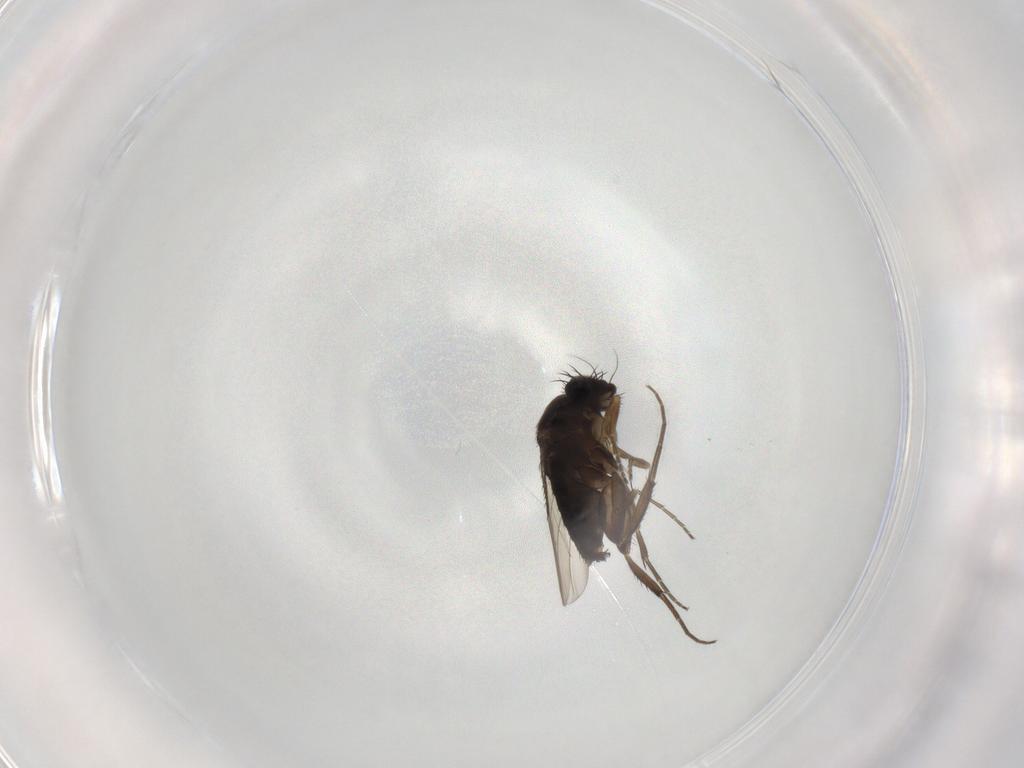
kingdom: Animalia
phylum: Arthropoda
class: Insecta
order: Diptera
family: Phoridae
